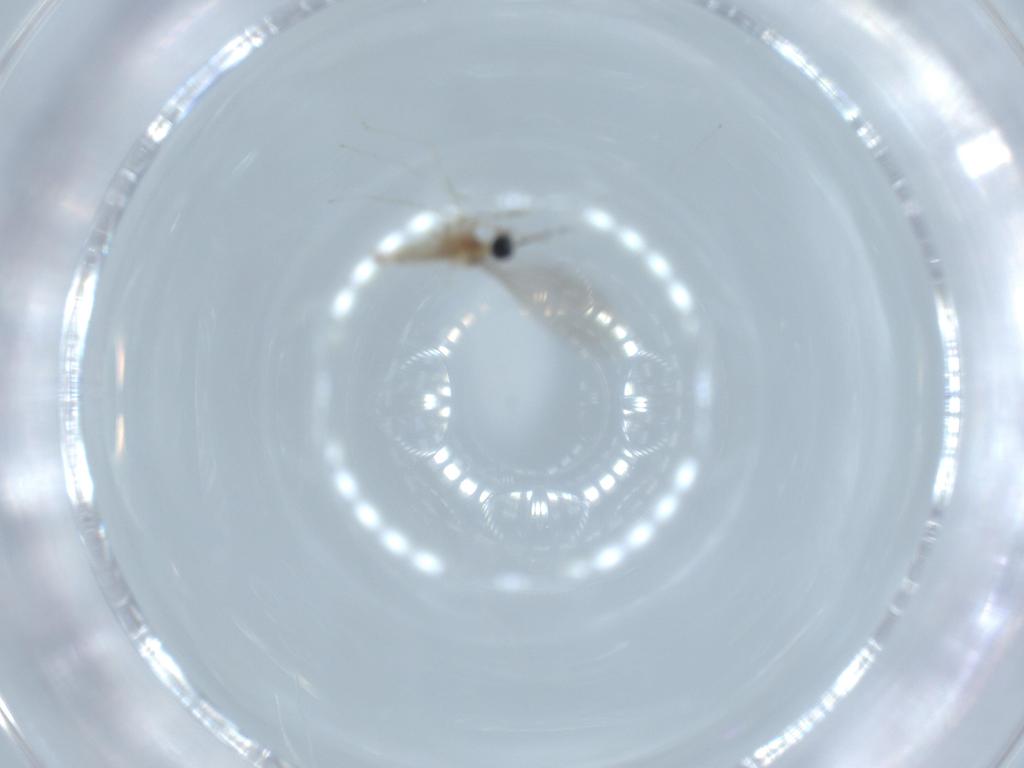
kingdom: Animalia
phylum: Arthropoda
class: Insecta
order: Diptera
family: Cecidomyiidae
